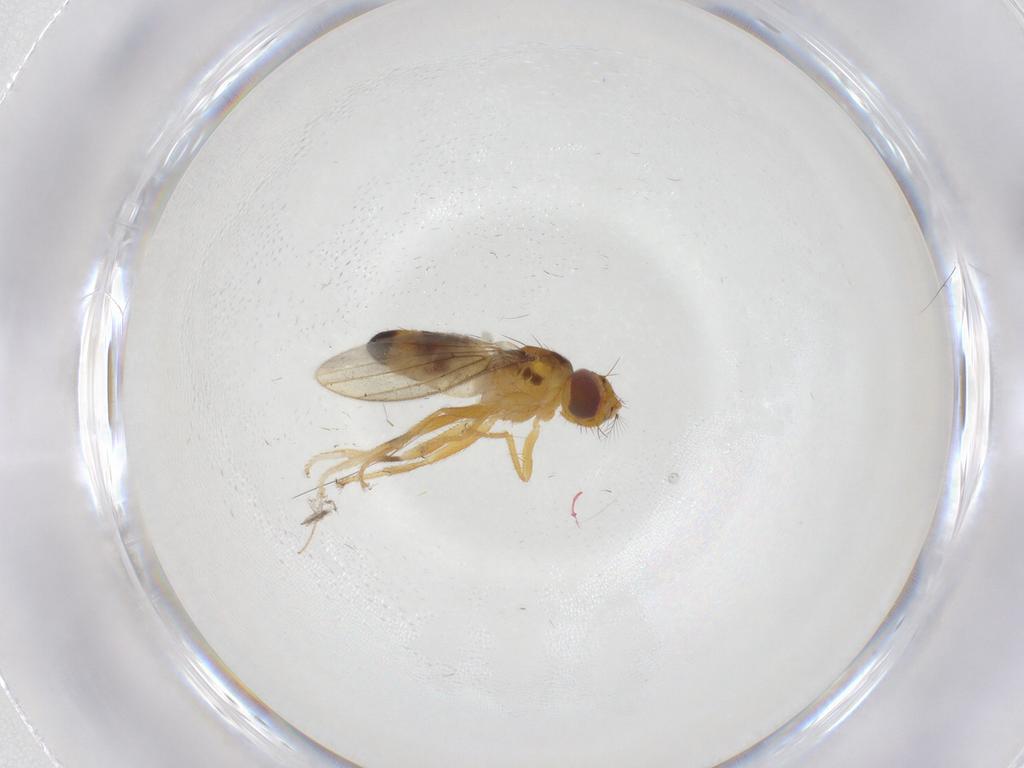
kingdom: Animalia
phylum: Arthropoda
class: Insecta
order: Diptera
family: Periscelididae
